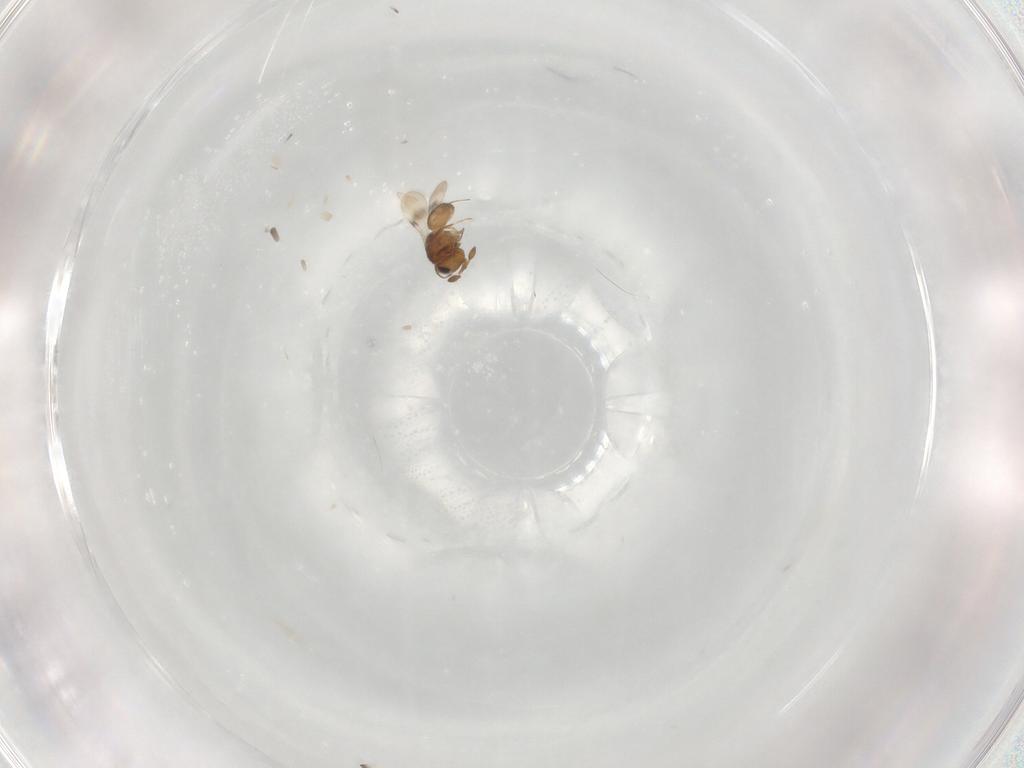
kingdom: Animalia
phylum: Arthropoda
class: Insecta
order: Hymenoptera
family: Scelionidae
